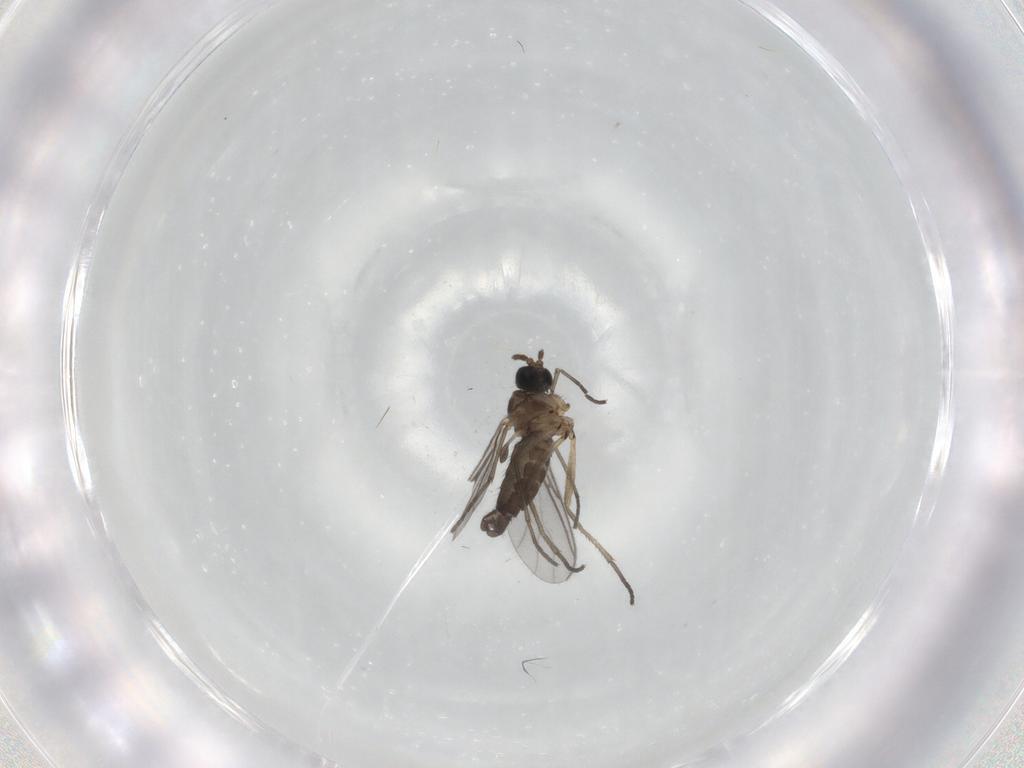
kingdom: Animalia
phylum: Arthropoda
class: Insecta
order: Diptera
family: Sciaridae
